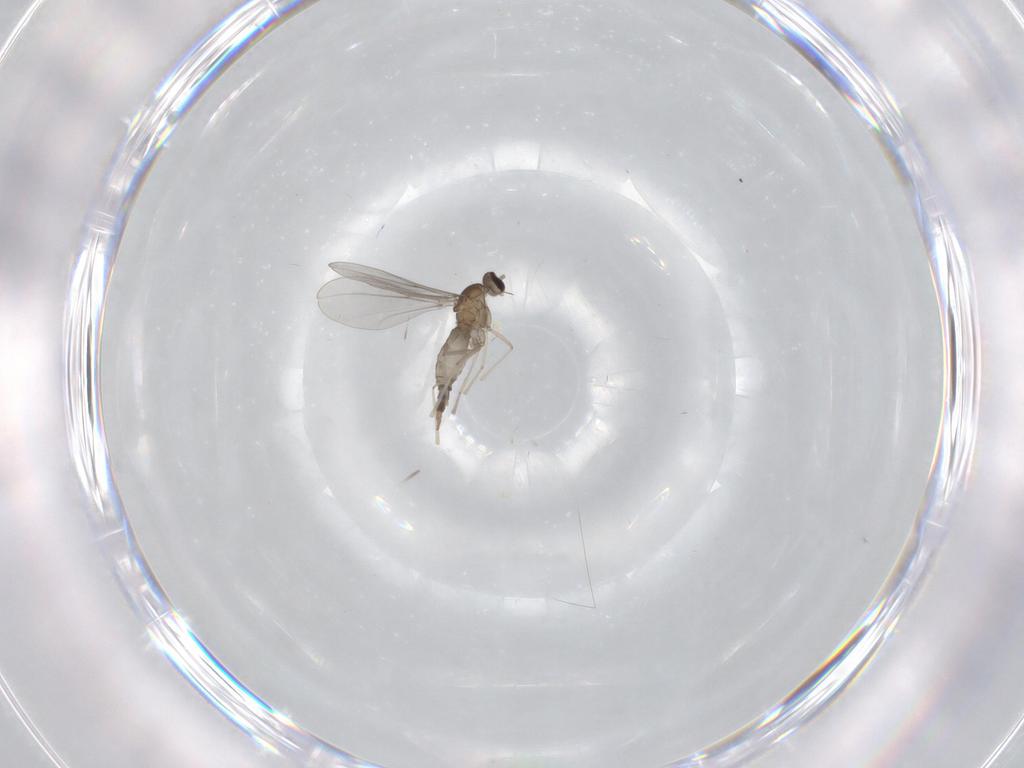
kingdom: Animalia
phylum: Arthropoda
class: Insecta
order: Diptera
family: Cecidomyiidae
